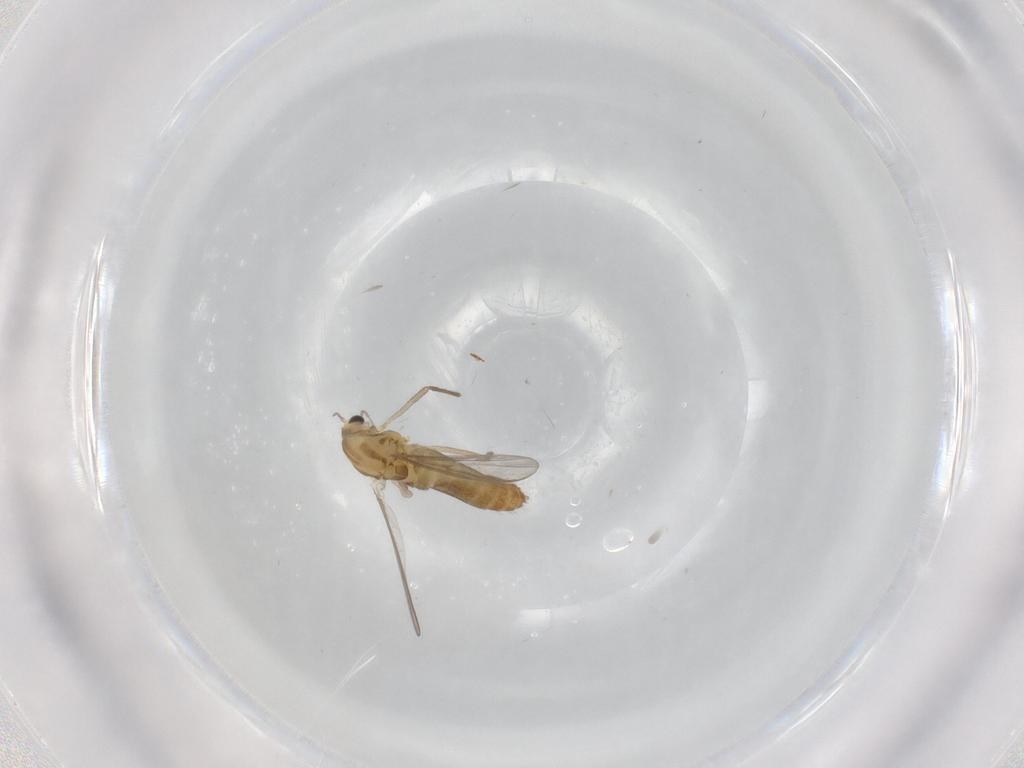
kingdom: Animalia
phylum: Arthropoda
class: Insecta
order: Diptera
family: Chironomidae
